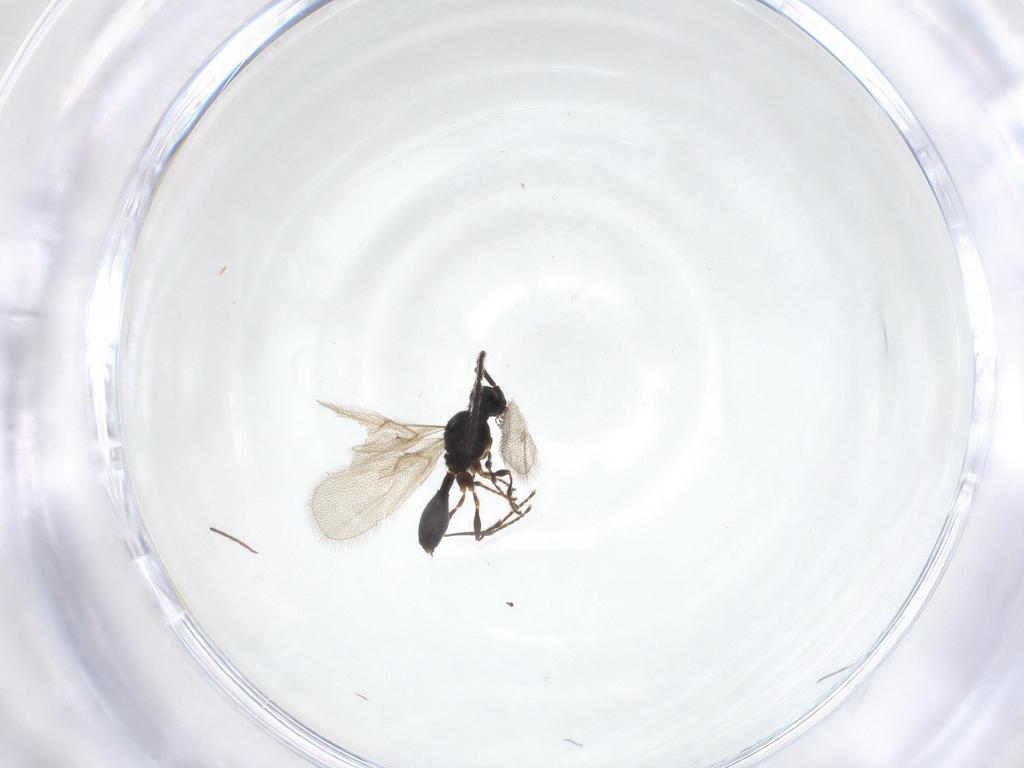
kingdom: Animalia
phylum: Arthropoda
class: Insecta
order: Hymenoptera
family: Diapriidae
